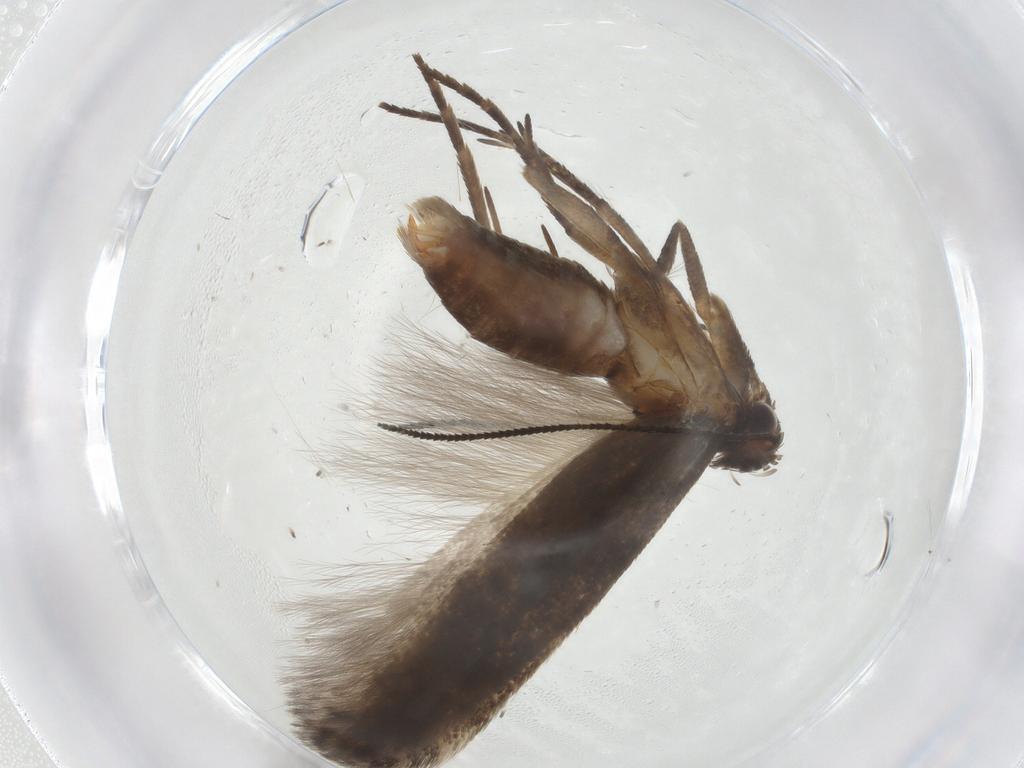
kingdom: Animalia
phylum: Arthropoda
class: Insecta
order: Lepidoptera
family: Gelechiidae
